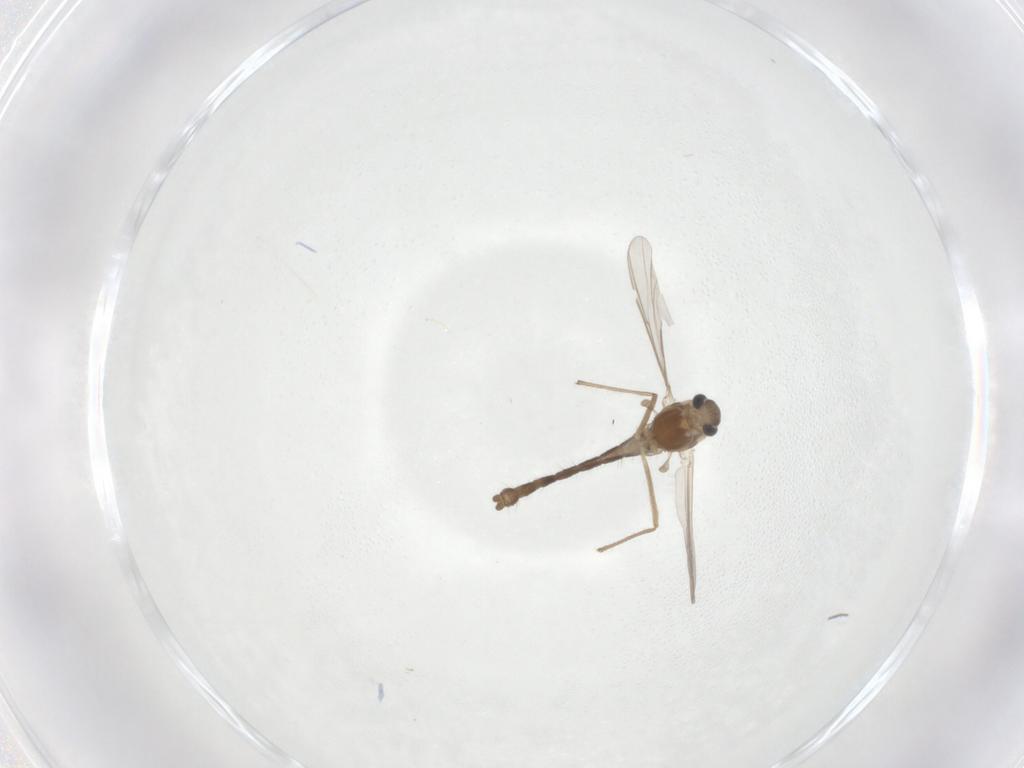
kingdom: Animalia
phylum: Arthropoda
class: Insecta
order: Diptera
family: Chironomidae
